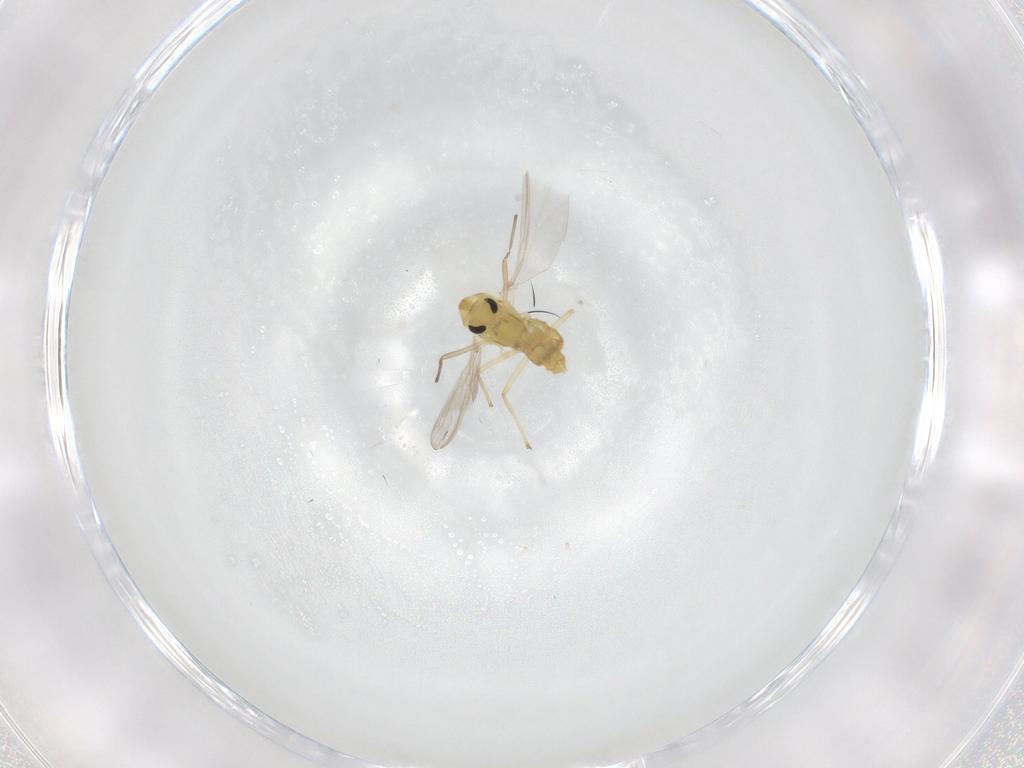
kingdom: Animalia
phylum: Arthropoda
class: Insecta
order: Diptera
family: Chironomidae
